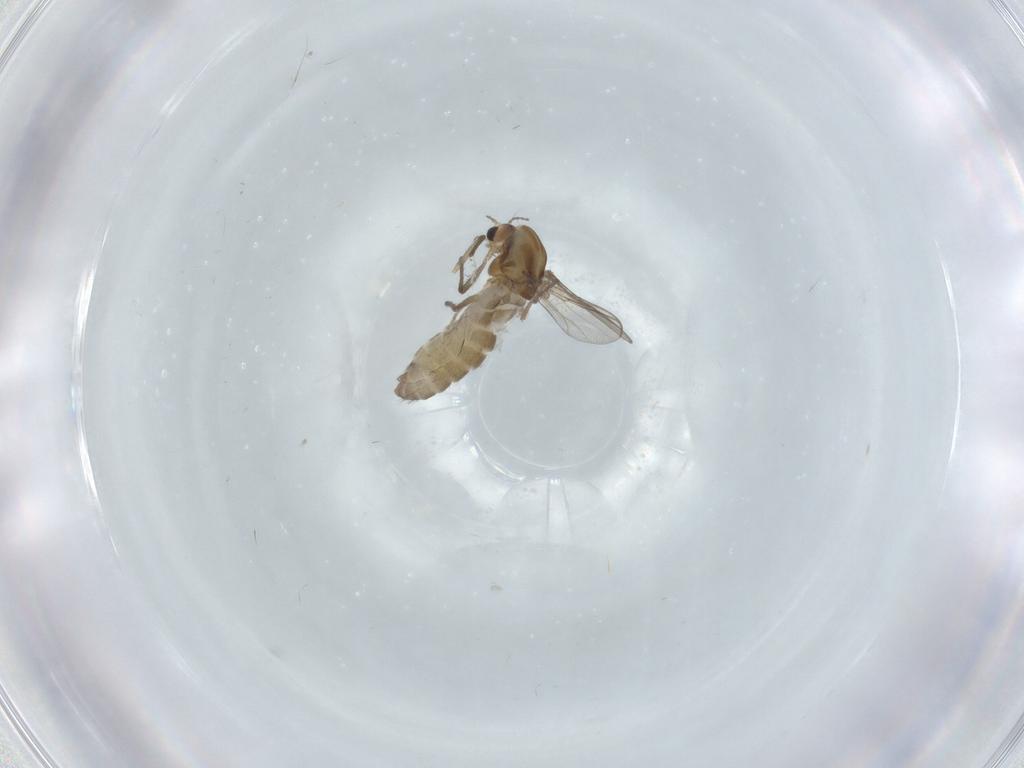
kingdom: Animalia
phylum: Arthropoda
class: Insecta
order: Diptera
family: Chironomidae
